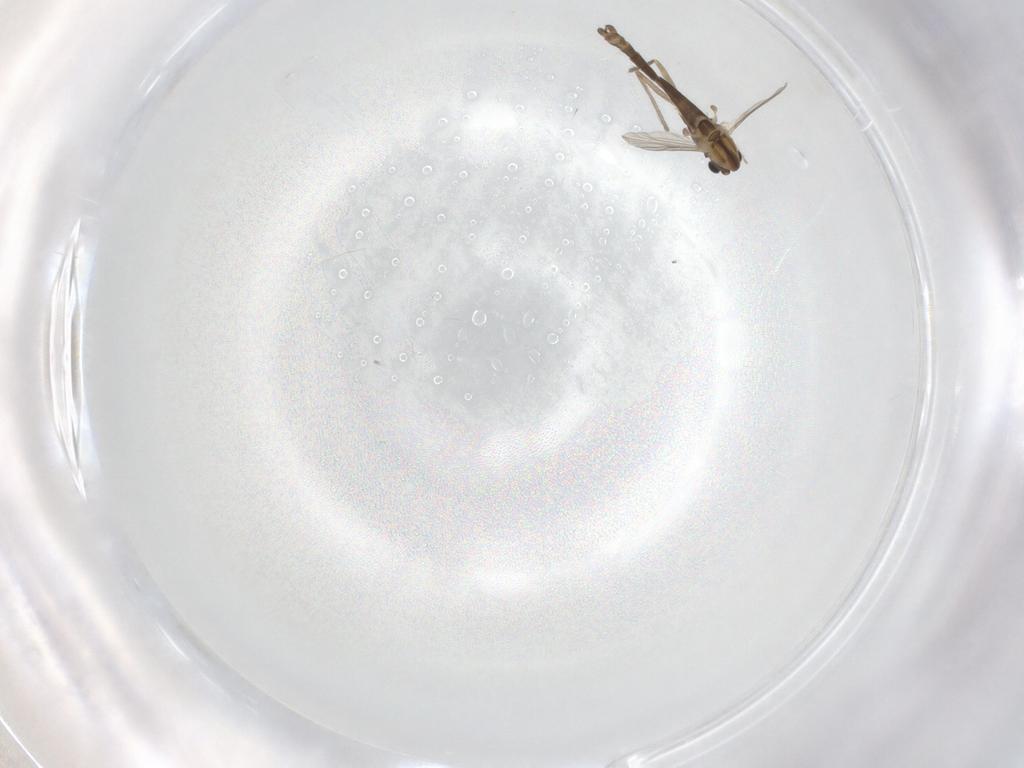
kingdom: Animalia
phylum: Arthropoda
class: Insecta
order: Diptera
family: Chironomidae
